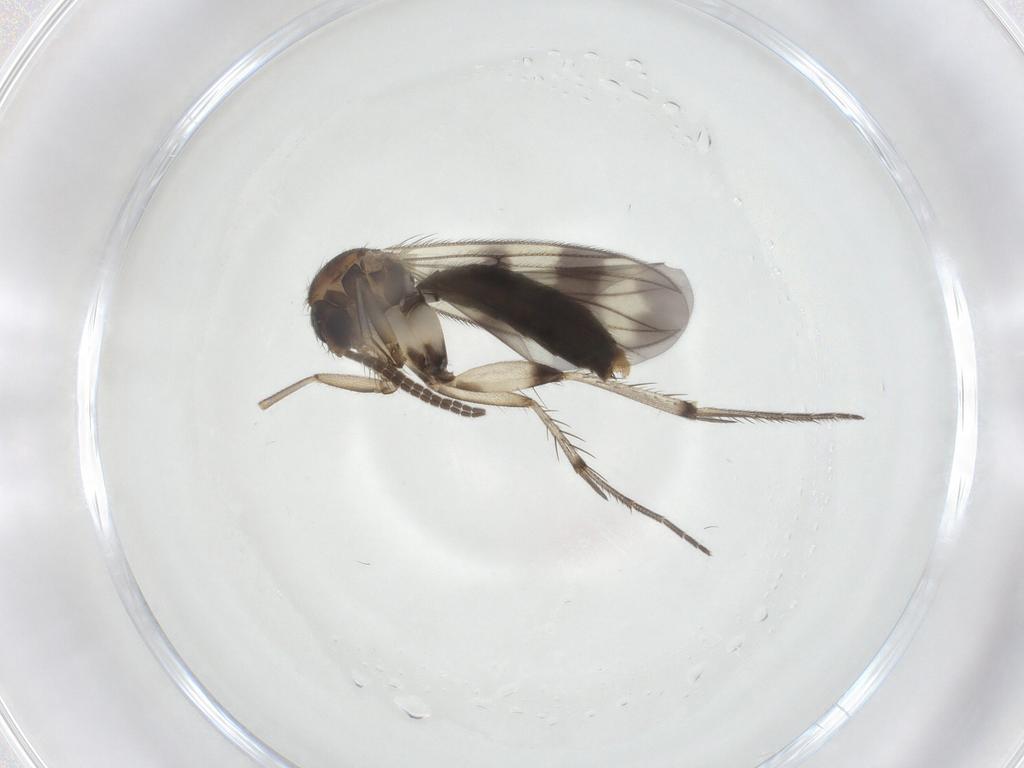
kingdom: Animalia
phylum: Arthropoda
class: Insecta
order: Diptera
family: Mycetophilidae
